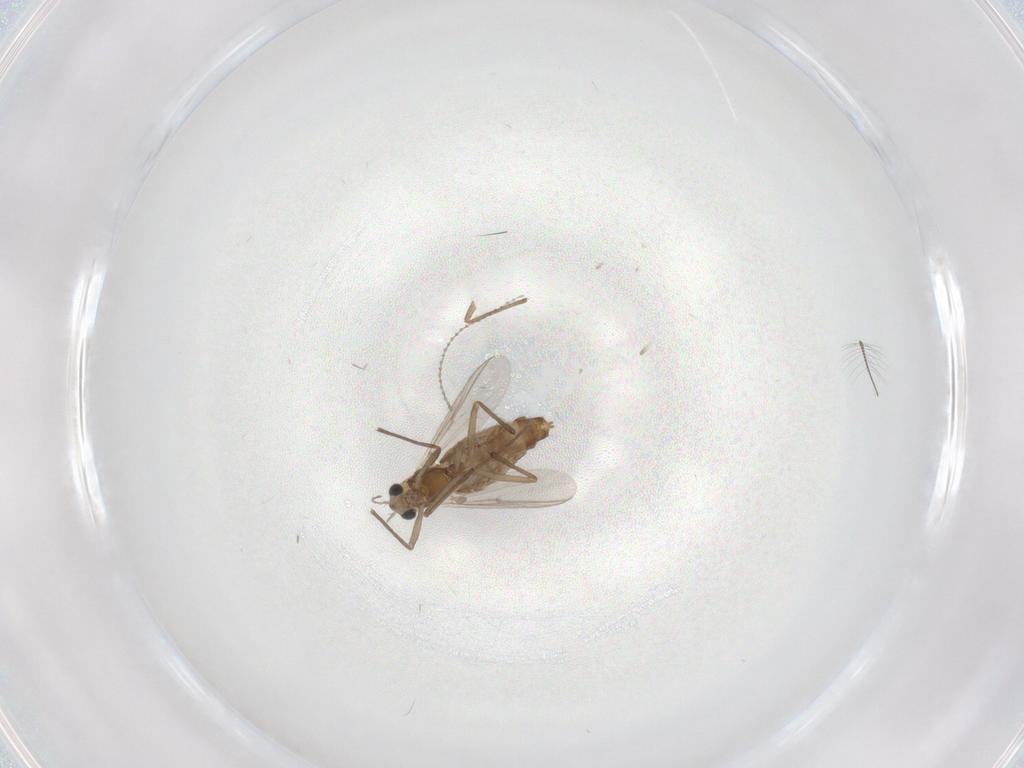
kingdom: Animalia
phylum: Arthropoda
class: Insecta
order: Diptera
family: Chironomidae
